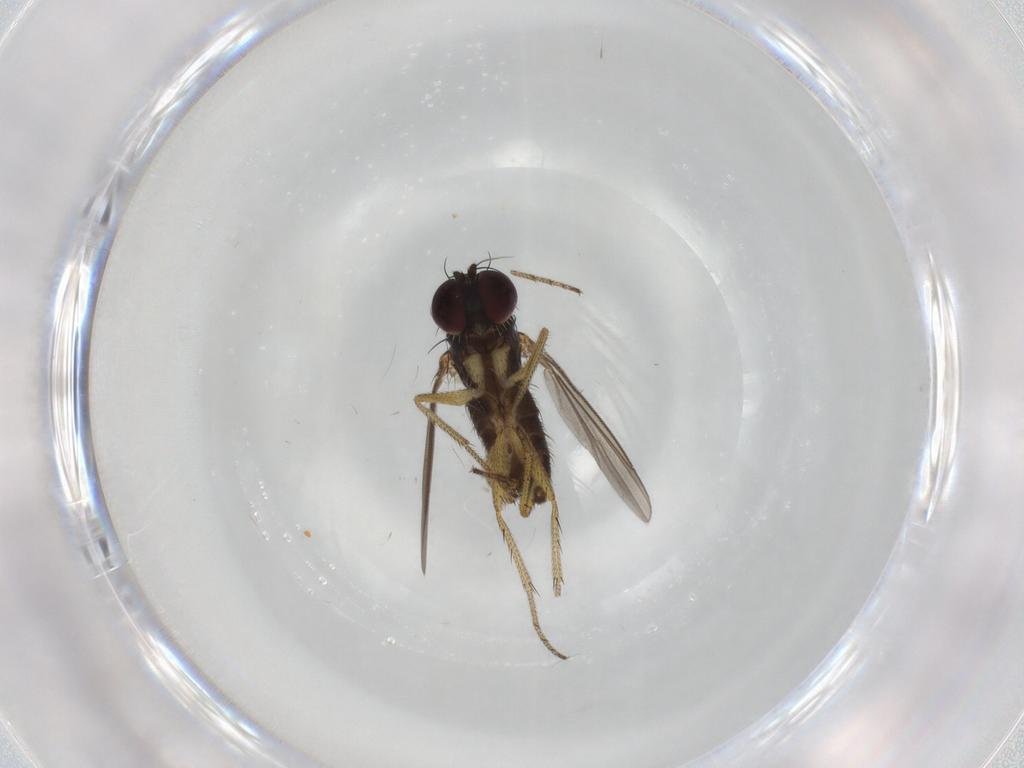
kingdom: Animalia
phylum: Arthropoda
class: Insecta
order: Diptera
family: Dolichopodidae
